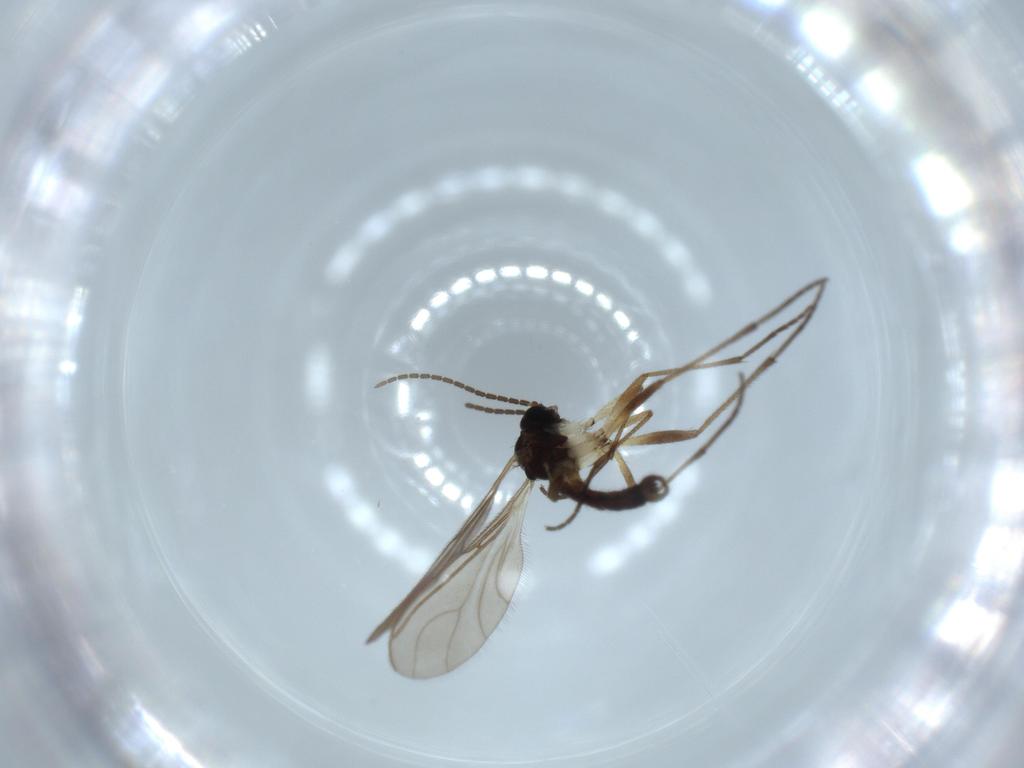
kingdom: Animalia
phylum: Arthropoda
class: Insecta
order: Diptera
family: Sciaridae
